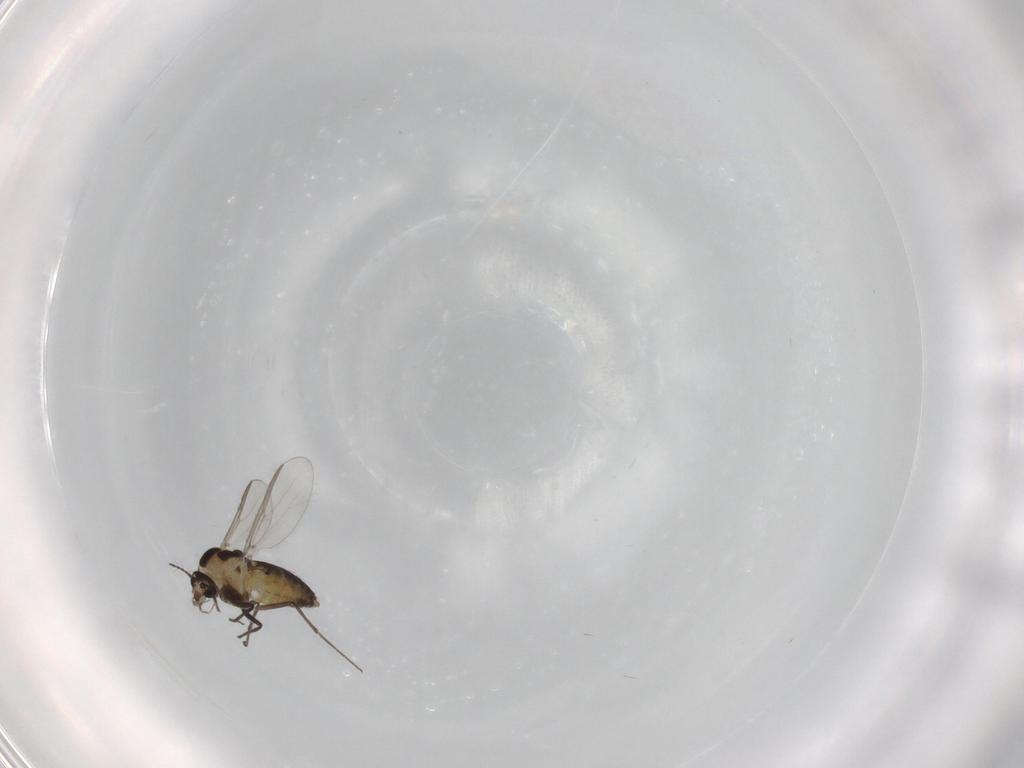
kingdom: Animalia
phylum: Arthropoda
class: Insecta
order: Diptera
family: Chironomidae
